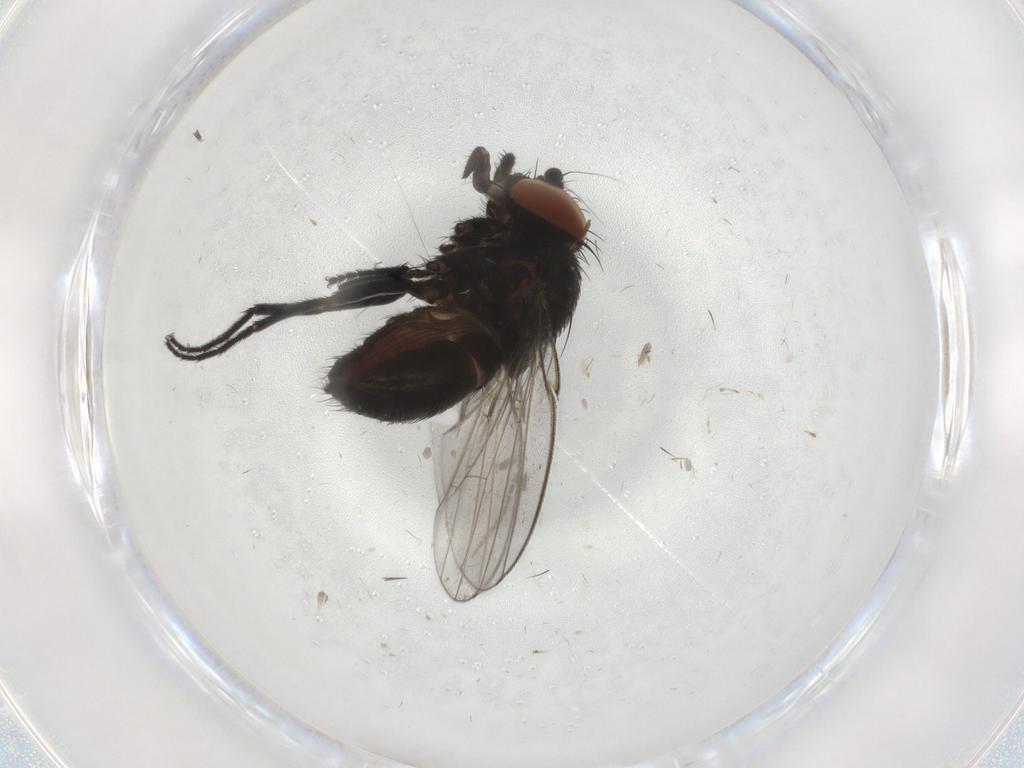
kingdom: Animalia
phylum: Arthropoda
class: Insecta
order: Diptera
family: Milichiidae
